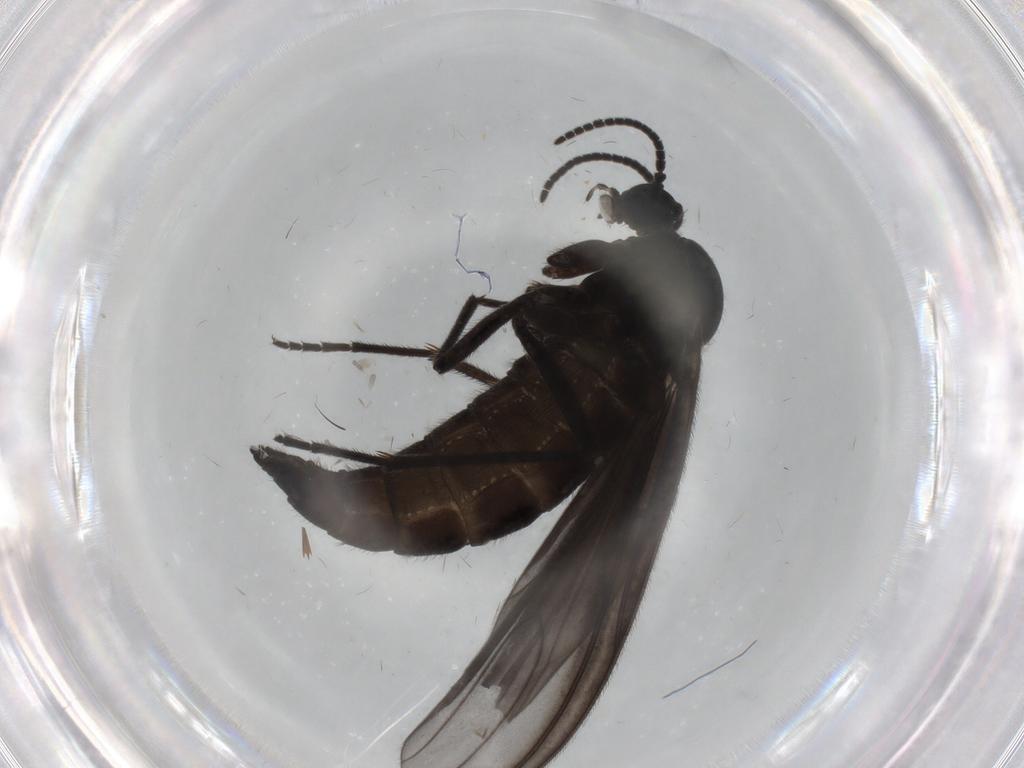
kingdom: Animalia
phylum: Arthropoda
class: Insecta
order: Diptera
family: Sciaridae
